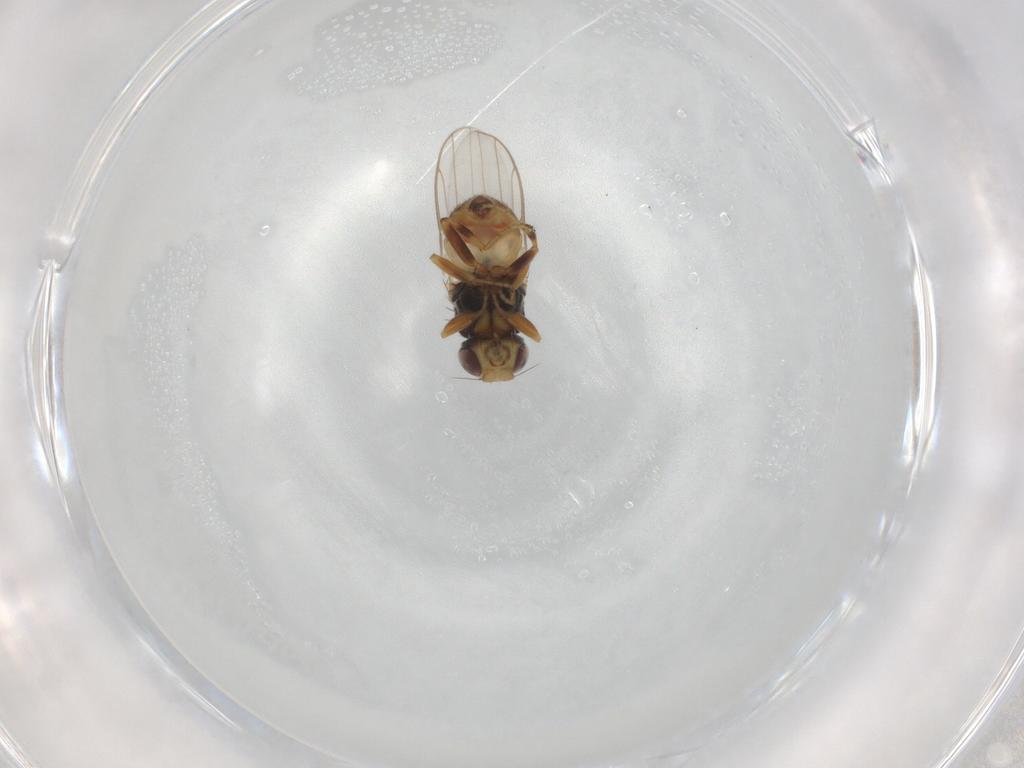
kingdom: Animalia
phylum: Arthropoda
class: Insecta
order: Diptera
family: Chloropidae
